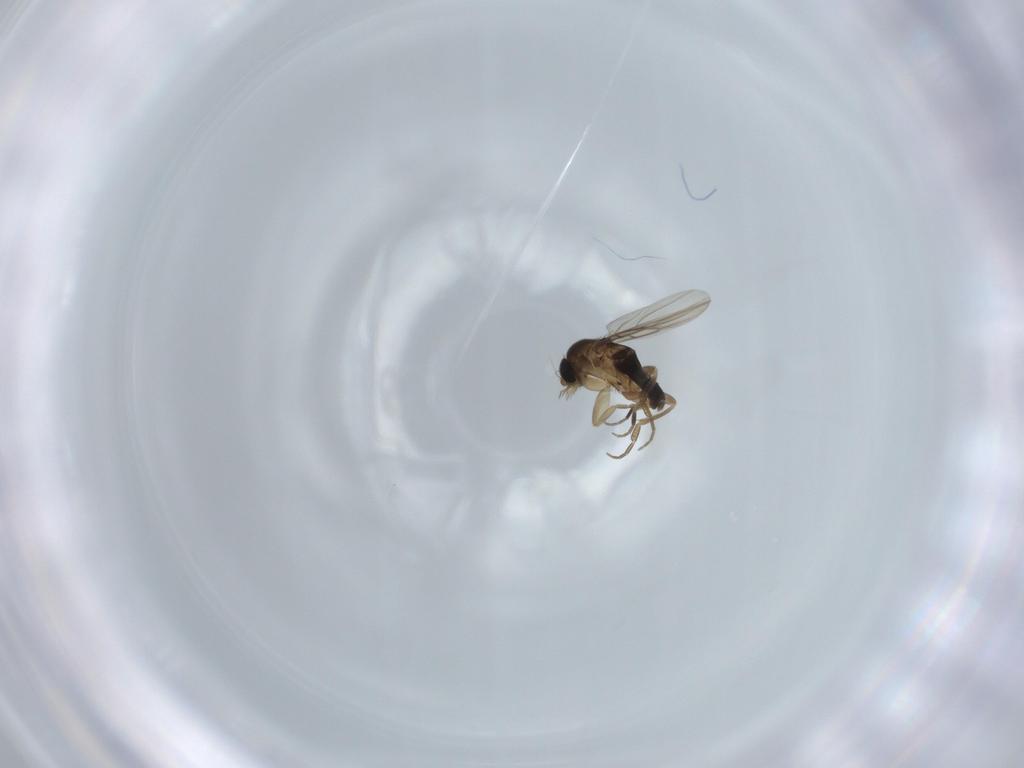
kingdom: Animalia
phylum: Arthropoda
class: Insecta
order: Diptera
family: Phoridae
